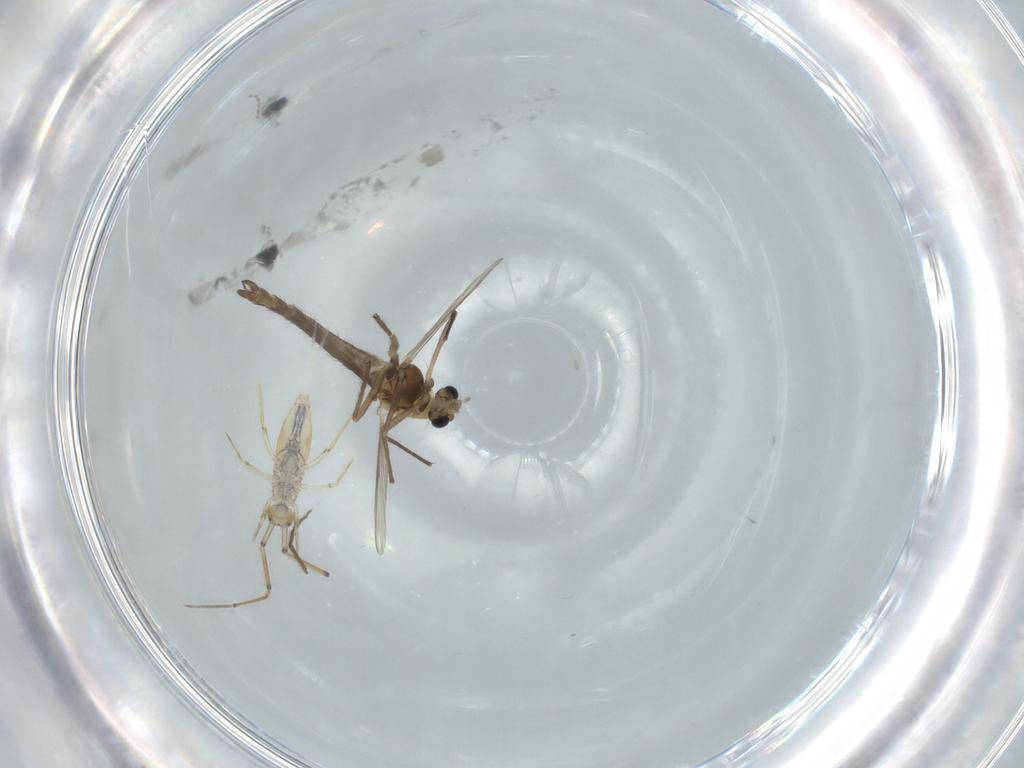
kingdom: Animalia
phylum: Arthropoda
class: Insecta
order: Diptera
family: Chironomidae
